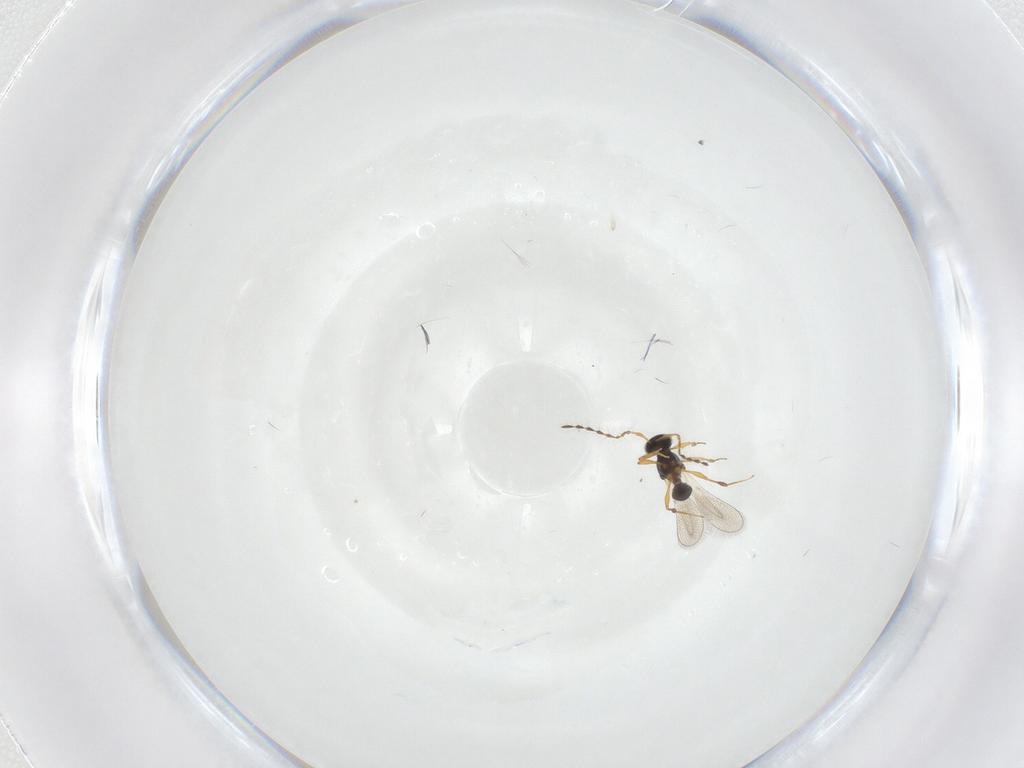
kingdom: Animalia
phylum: Arthropoda
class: Insecta
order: Hymenoptera
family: Platygastridae
